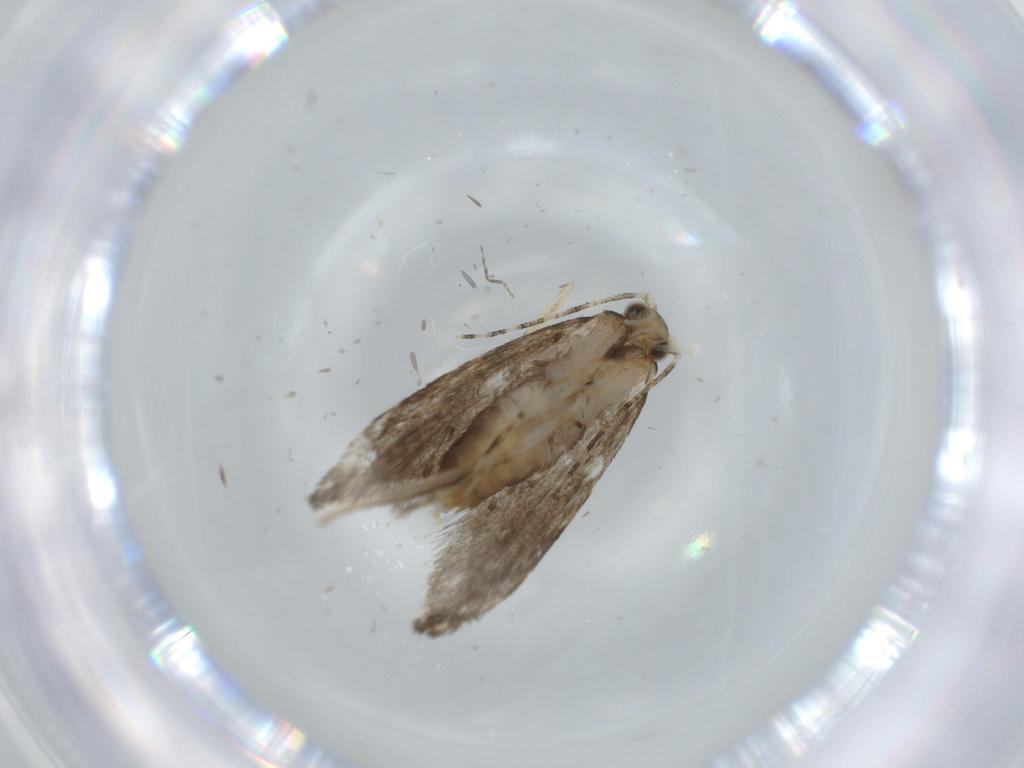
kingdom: Animalia
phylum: Arthropoda
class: Insecta
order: Lepidoptera
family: Tineidae
